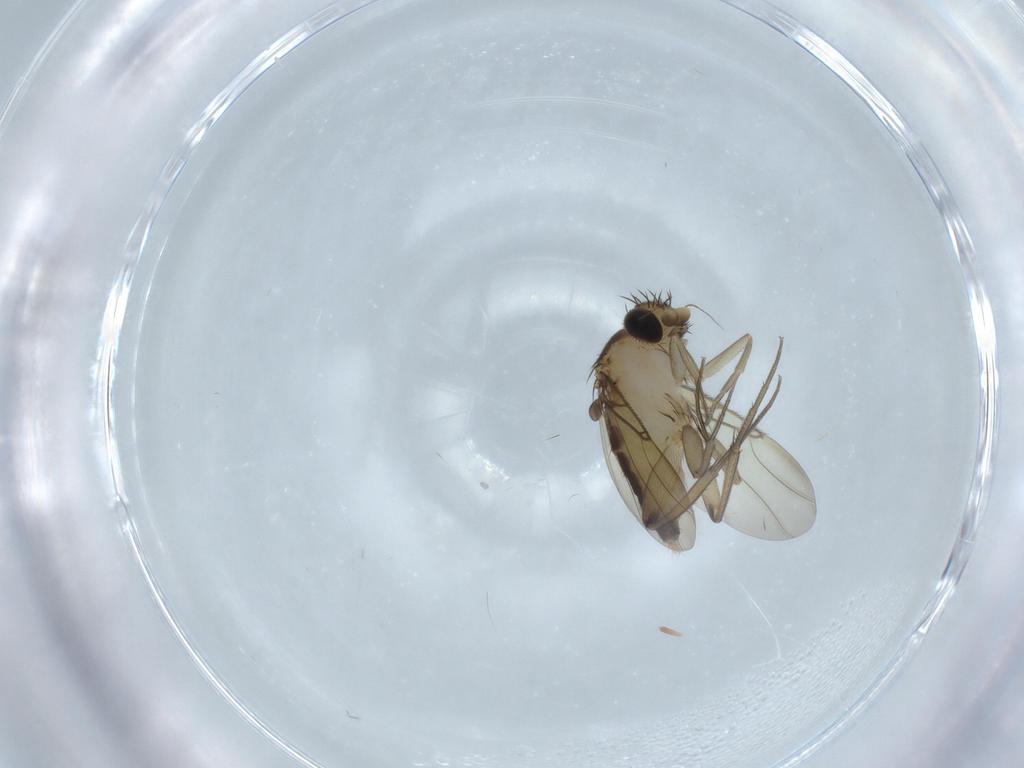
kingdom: Animalia
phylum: Arthropoda
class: Insecta
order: Diptera
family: Phoridae
